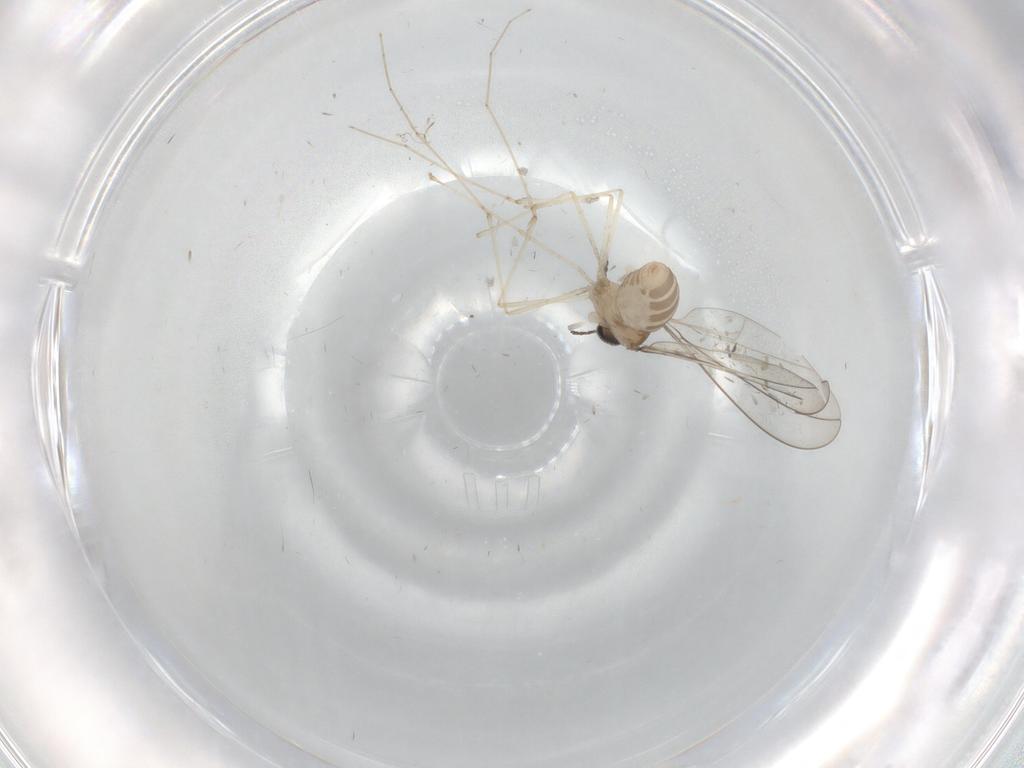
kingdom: Animalia
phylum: Arthropoda
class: Insecta
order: Diptera
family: Cecidomyiidae
